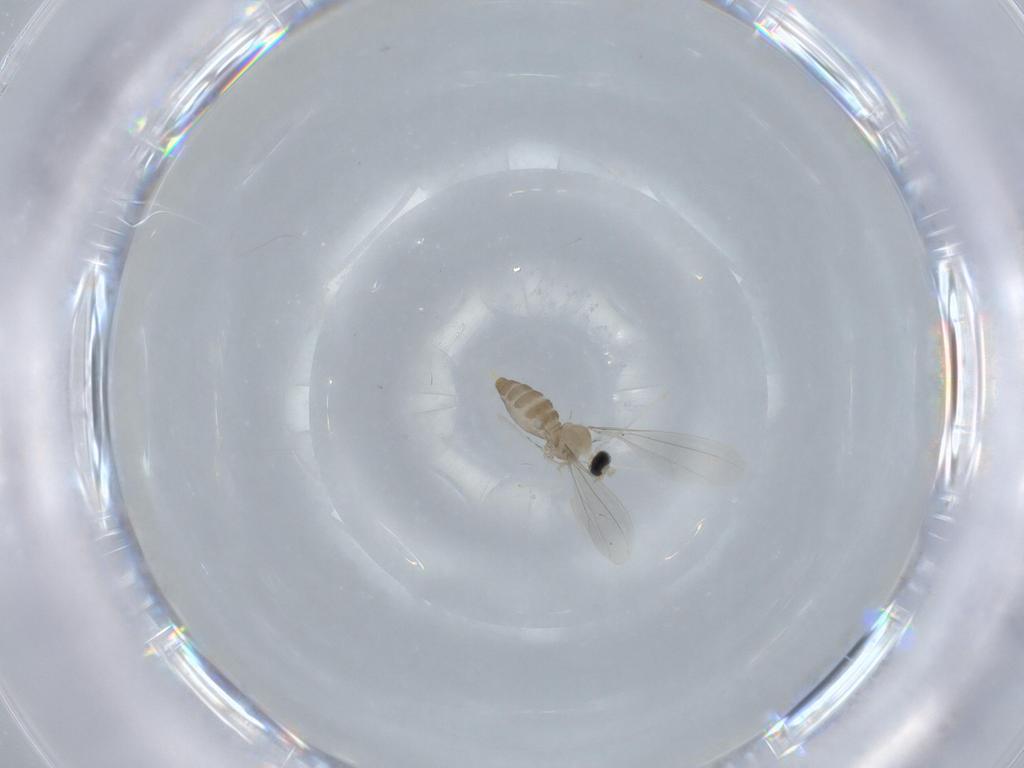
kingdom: Animalia
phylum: Arthropoda
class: Insecta
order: Diptera
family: Cecidomyiidae
